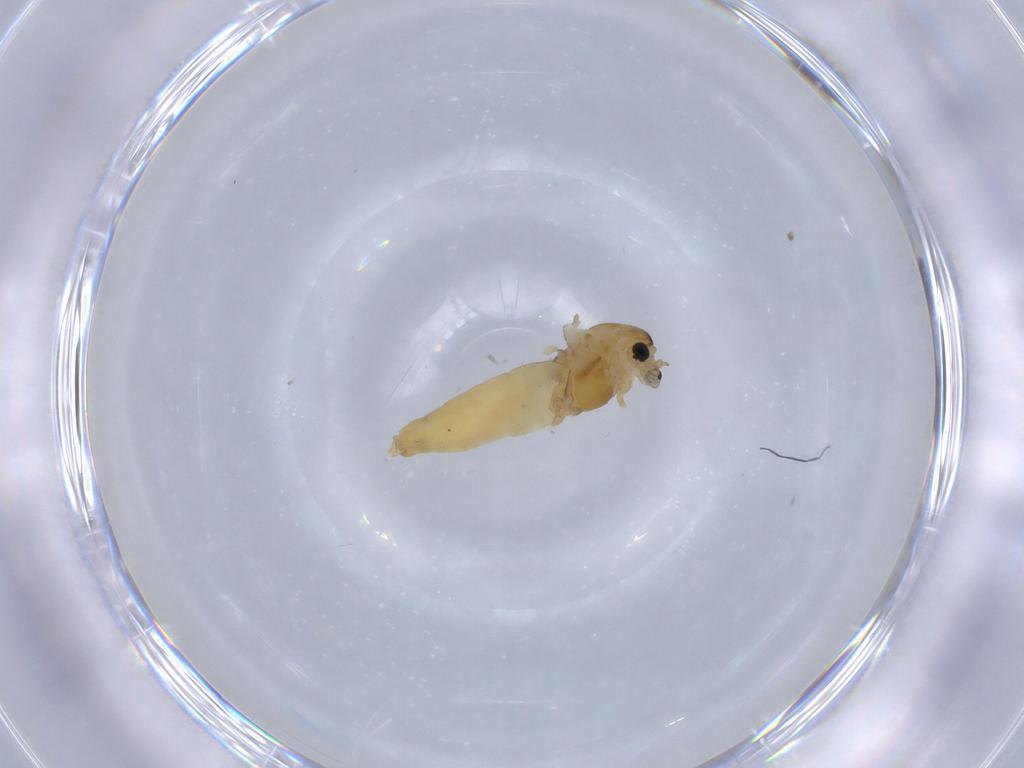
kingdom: Animalia
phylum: Arthropoda
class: Insecta
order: Diptera
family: Chironomidae
